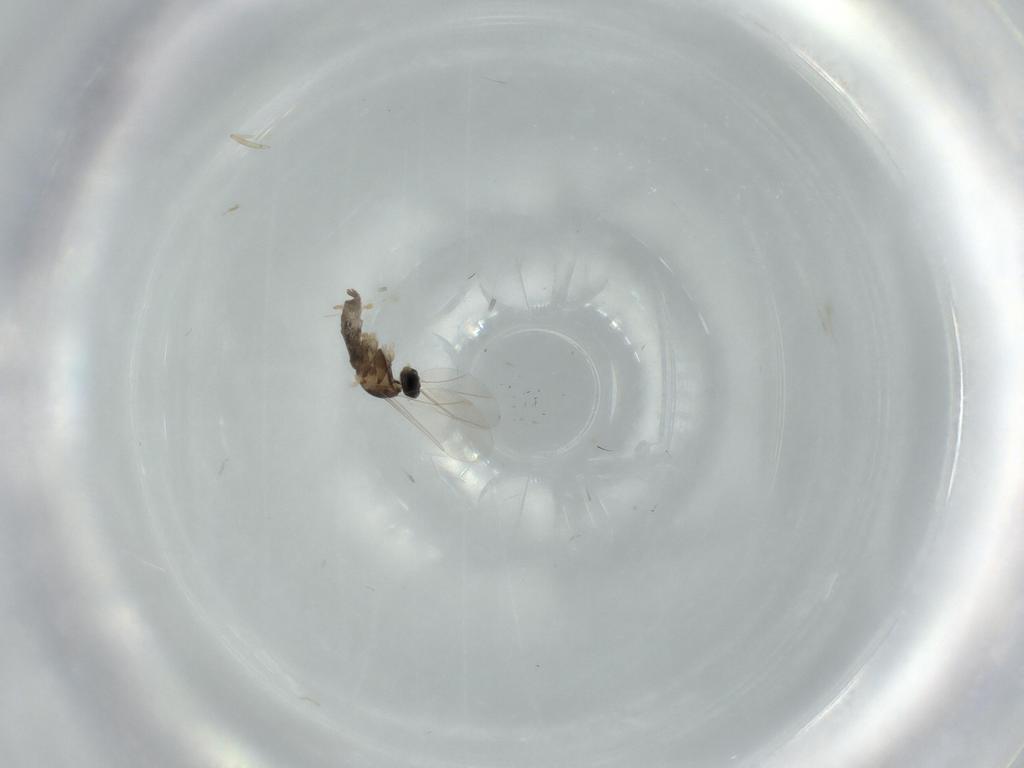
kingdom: Animalia
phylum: Arthropoda
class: Insecta
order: Diptera
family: Cecidomyiidae
